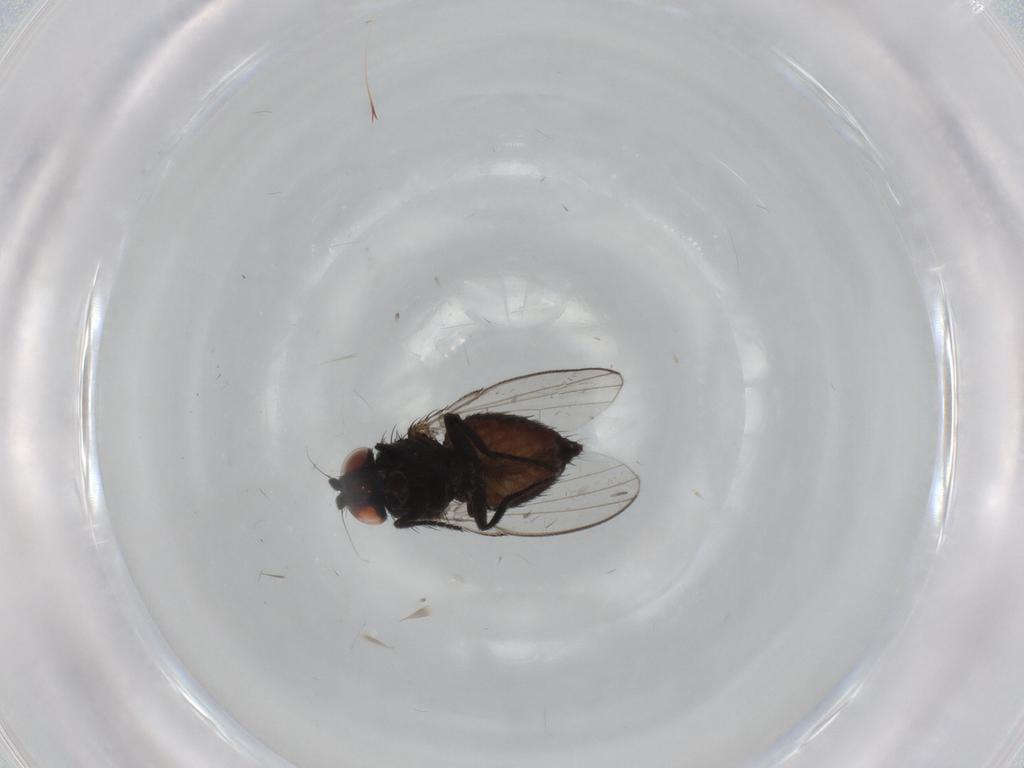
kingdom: Animalia
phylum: Arthropoda
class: Insecta
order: Diptera
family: Milichiidae
